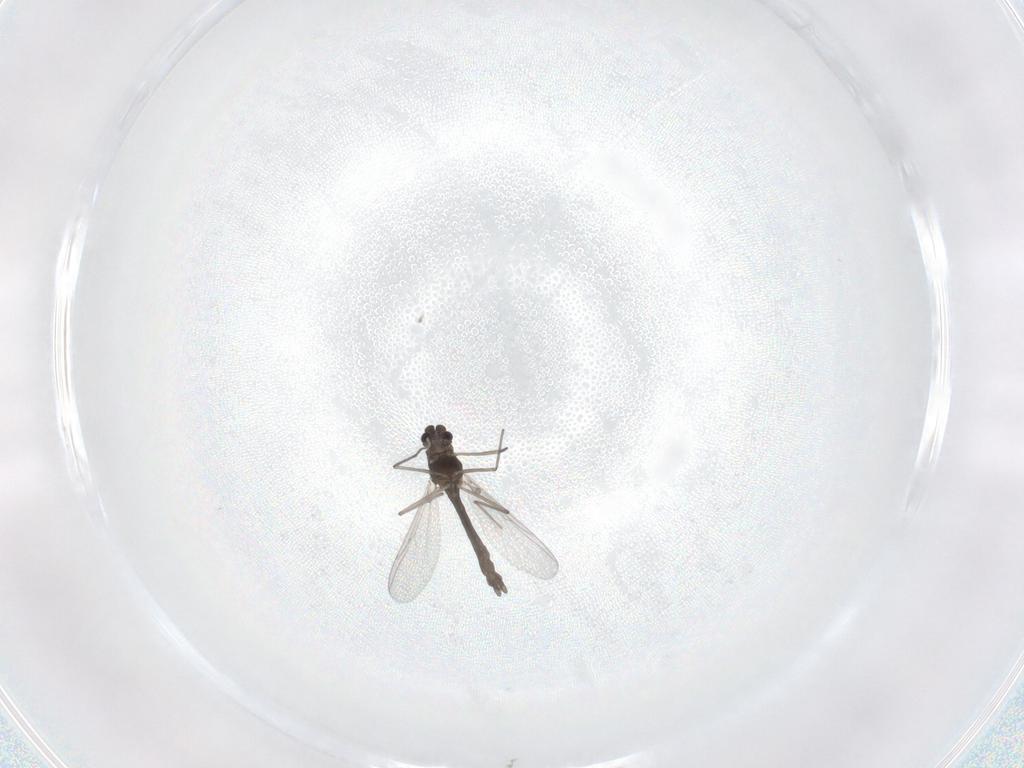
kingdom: Animalia
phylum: Arthropoda
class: Insecta
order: Diptera
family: Chironomidae
